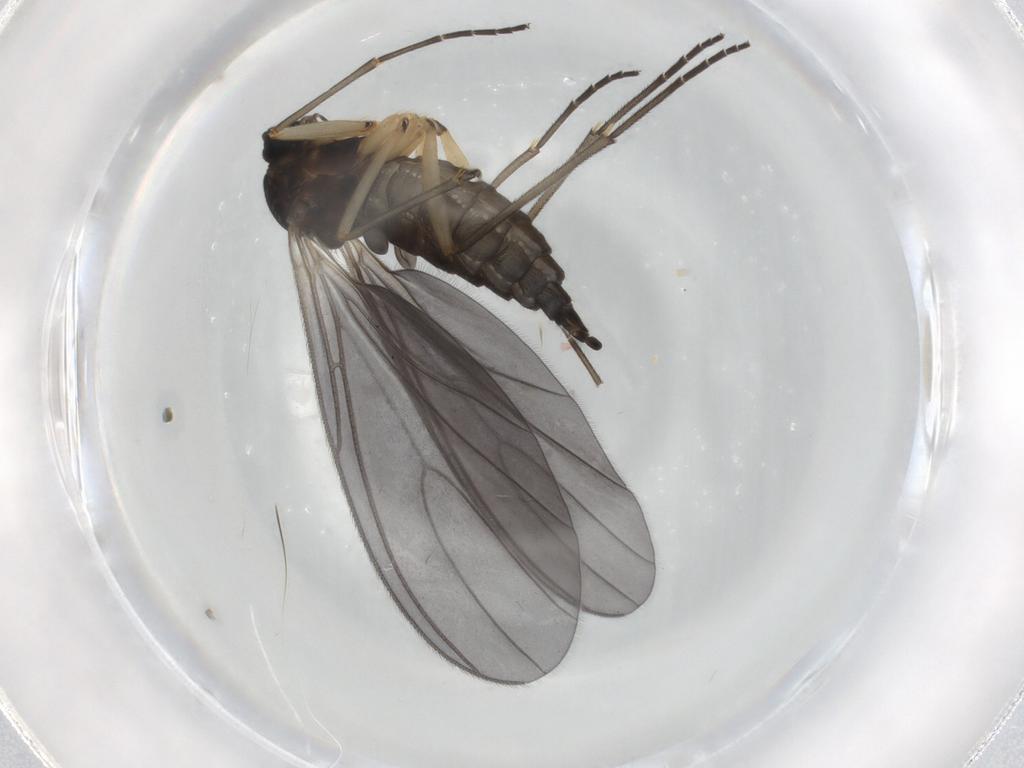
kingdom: Animalia
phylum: Arthropoda
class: Insecta
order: Diptera
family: Sciaridae
